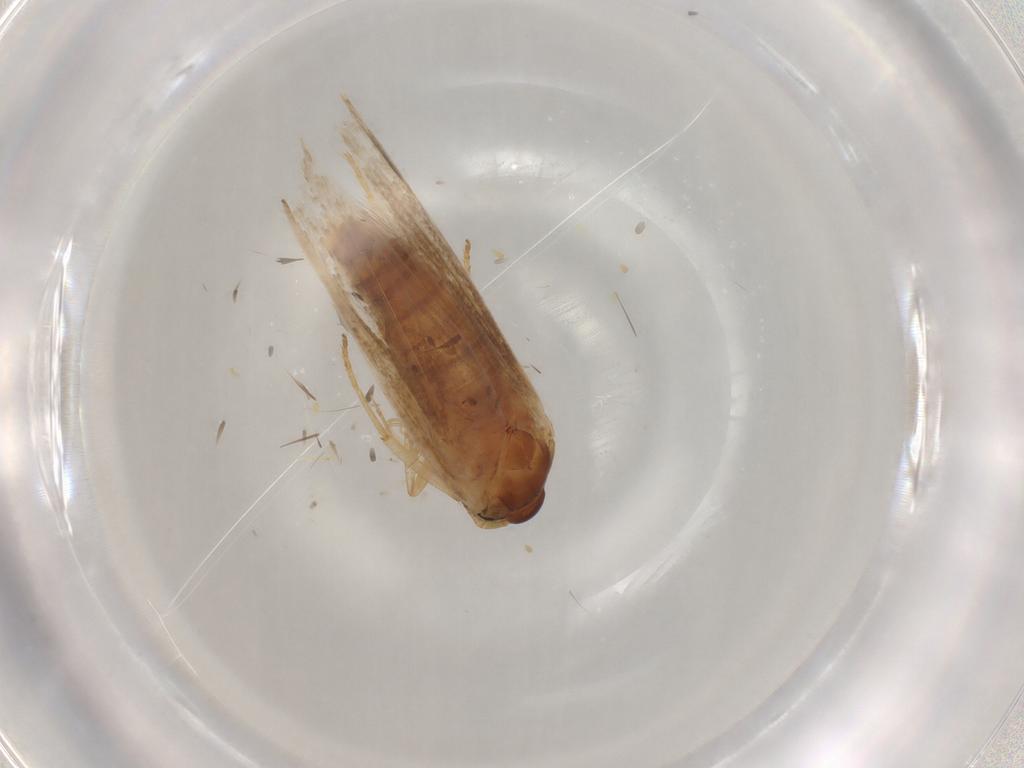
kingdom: Animalia
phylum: Arthropoda
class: Insecta
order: Lepidoptera
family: Blastobasidae
